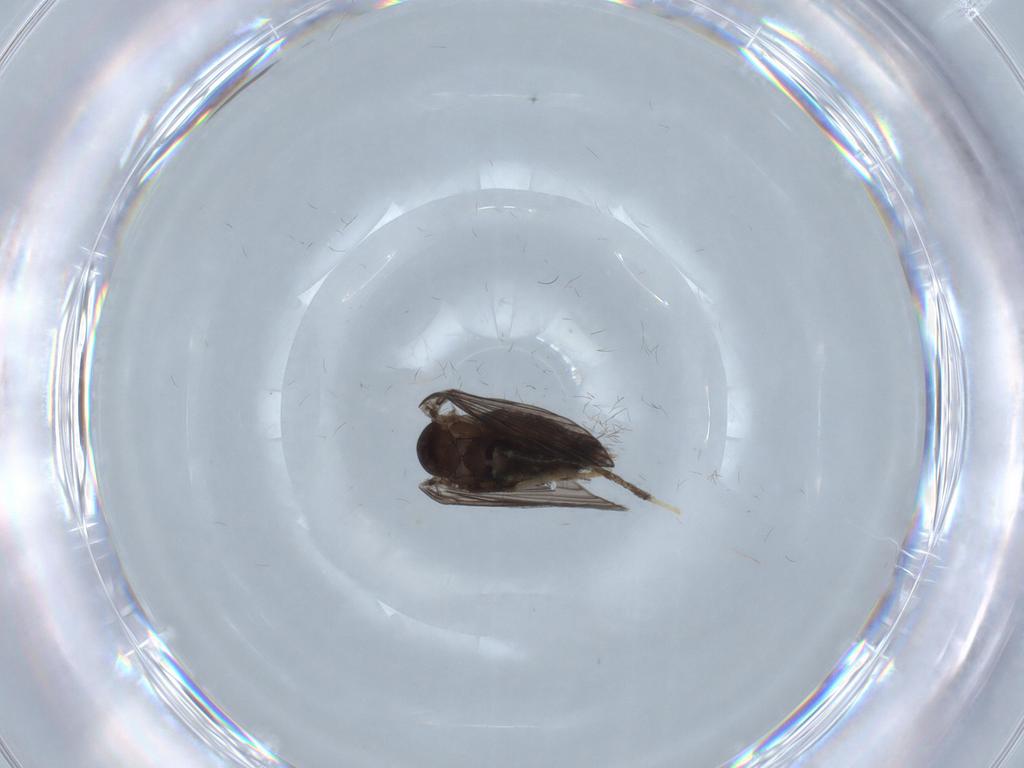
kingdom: Animalia
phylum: Arthropoda
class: Insecta
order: Diptera
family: Psychodidae
